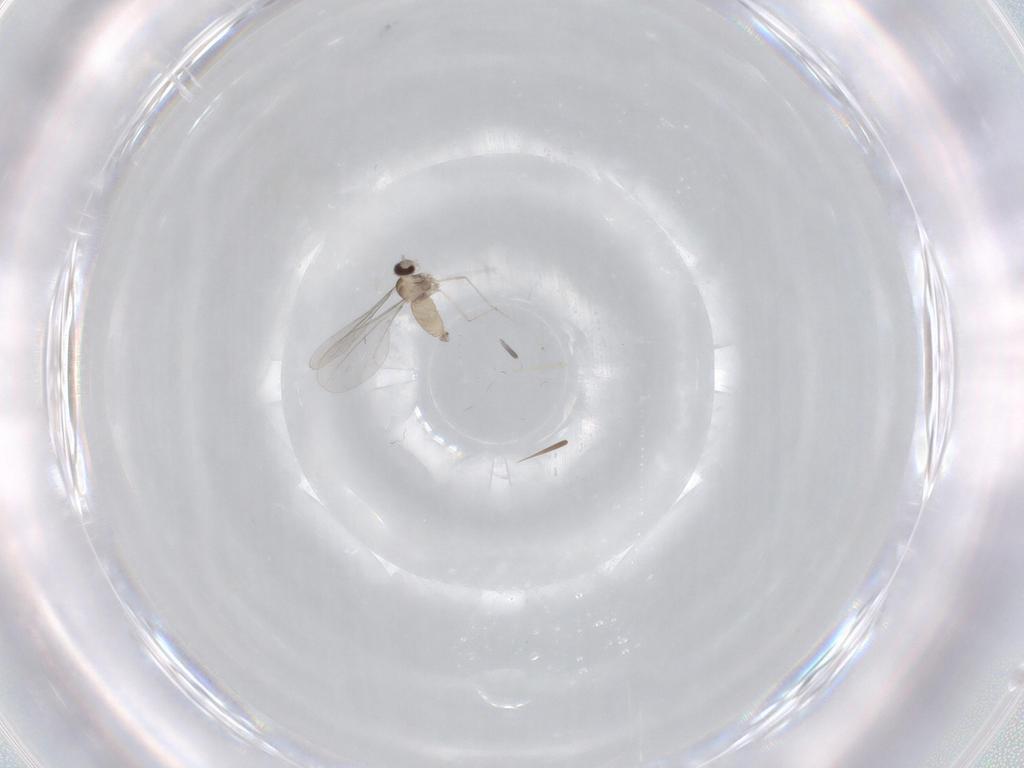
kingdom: Animalia
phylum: Arthropoda
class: Insecta
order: Diptera
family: Cecidomyiidae
